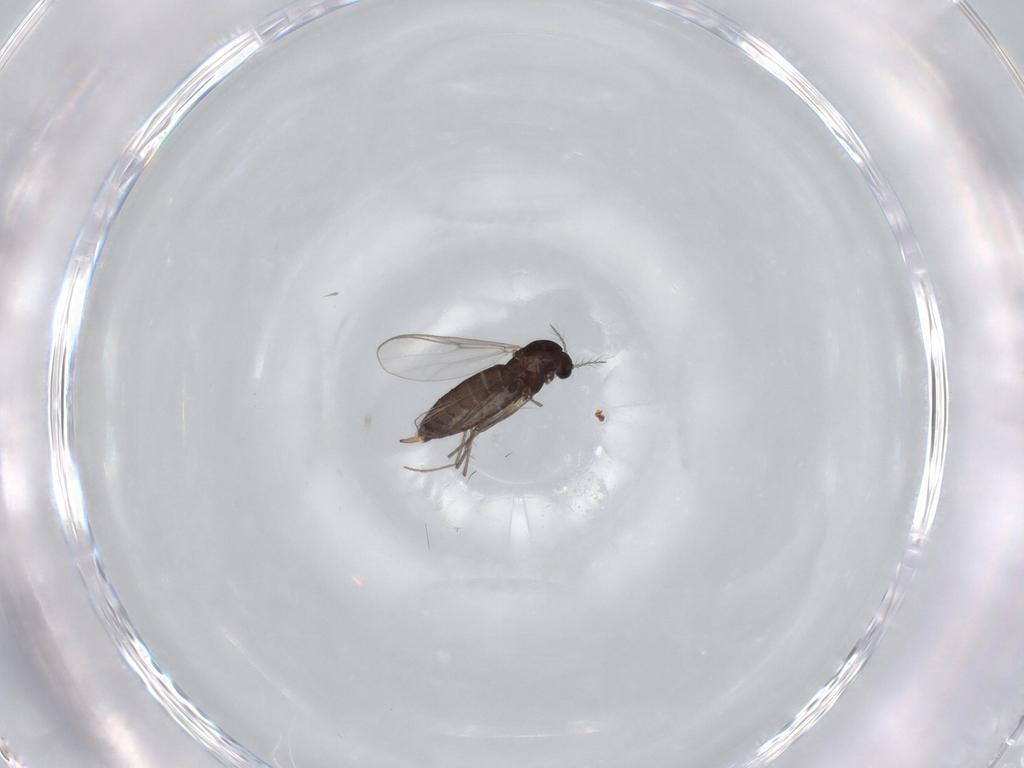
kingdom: Animalia
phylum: Arthropoda
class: Insecta
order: Diptera
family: Chironomidae
